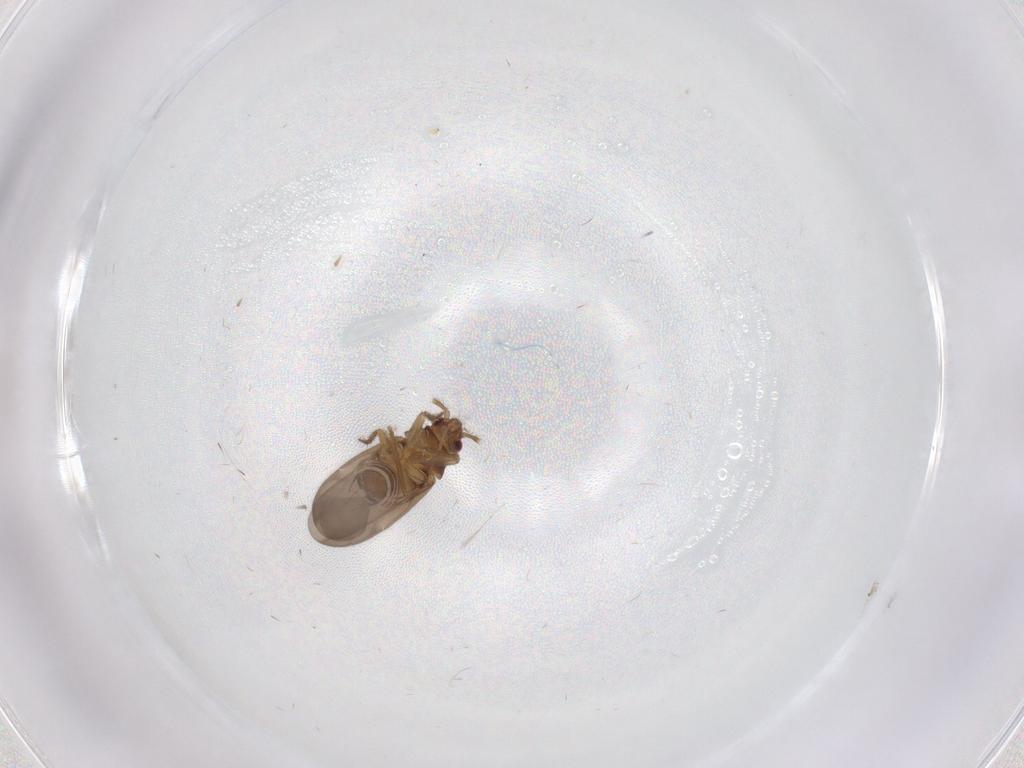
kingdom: Animalia
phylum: Arthropoda
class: Insecta
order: Hemiptera
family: Ceratocombidae
